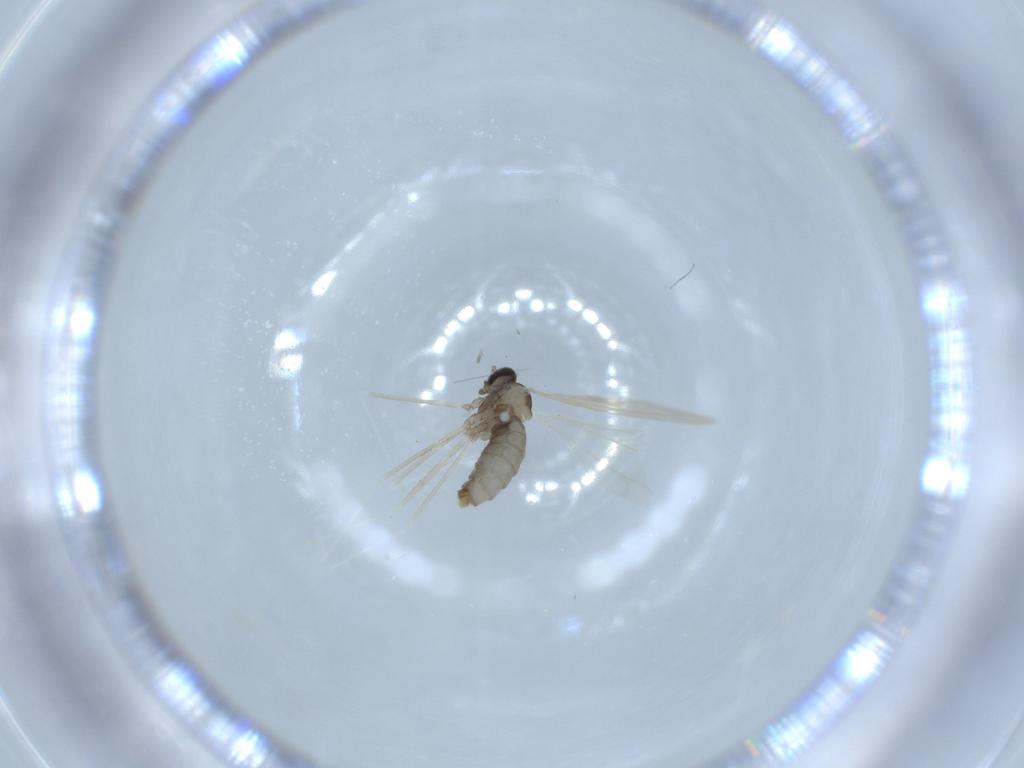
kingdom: Animalia
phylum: Arthropoda
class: Insecta
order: Diptera
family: Cecidomyiidae
